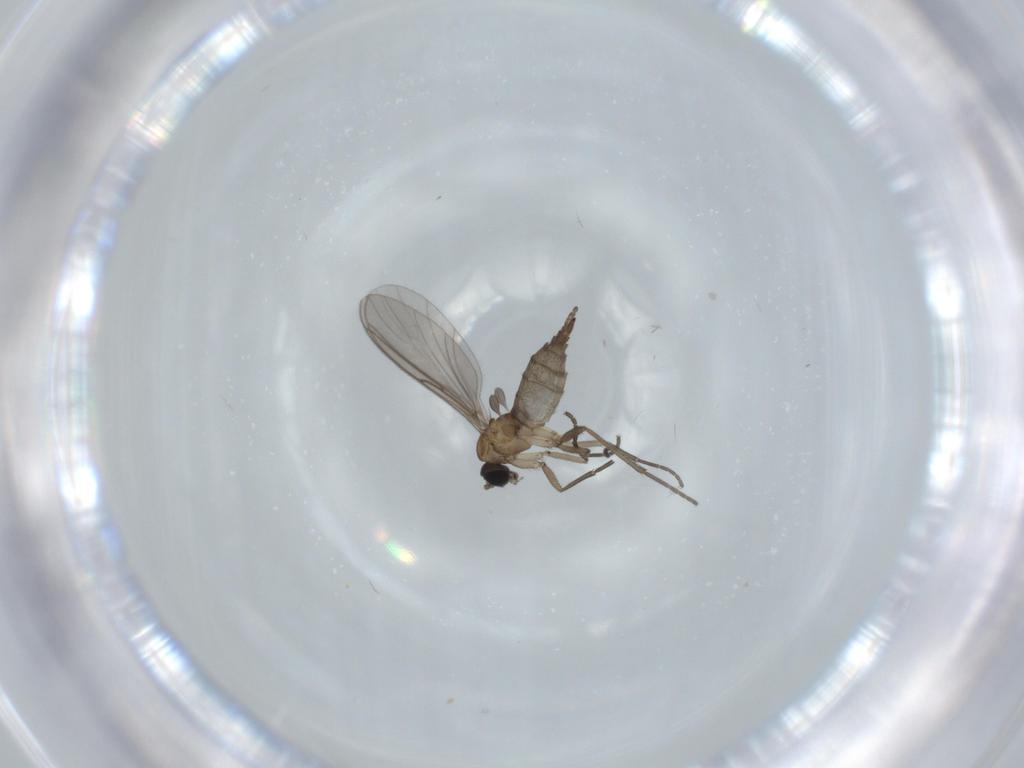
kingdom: Animalia
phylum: Arthropoda
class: Insecta
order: Diptera
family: Sciaridae
